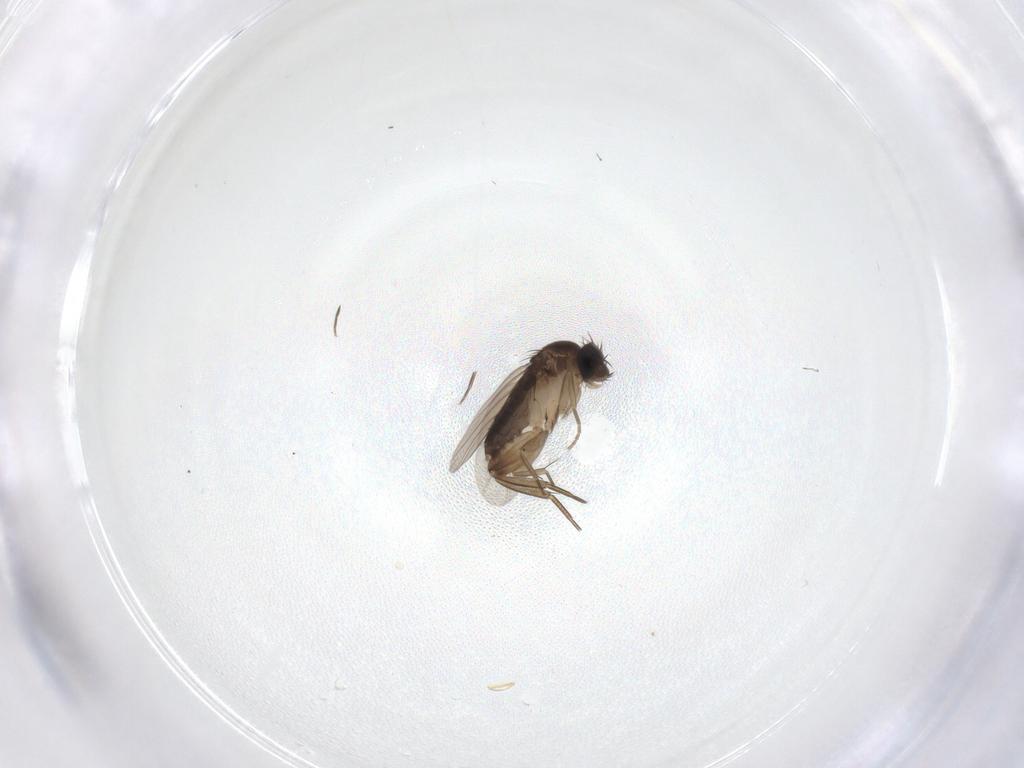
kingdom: Animalia
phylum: Arthropoda
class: Insecta
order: Diptera
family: Phoridae
